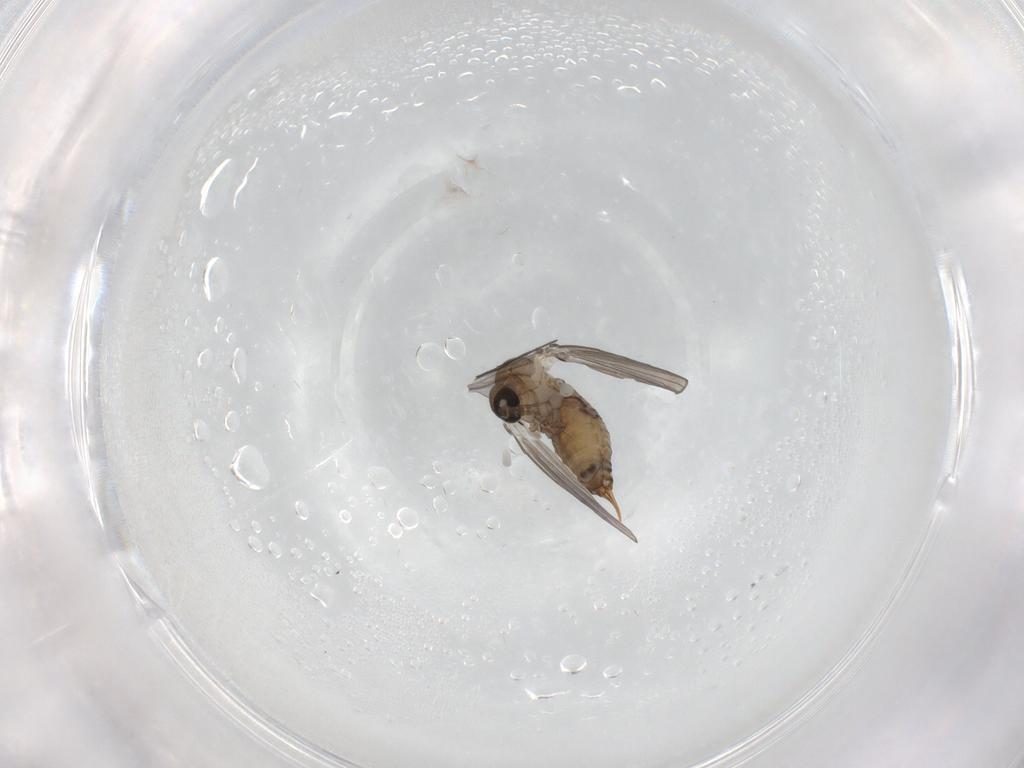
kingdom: Animalia
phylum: Arthropoda
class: Insecta
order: Diptera
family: Psychodidae
